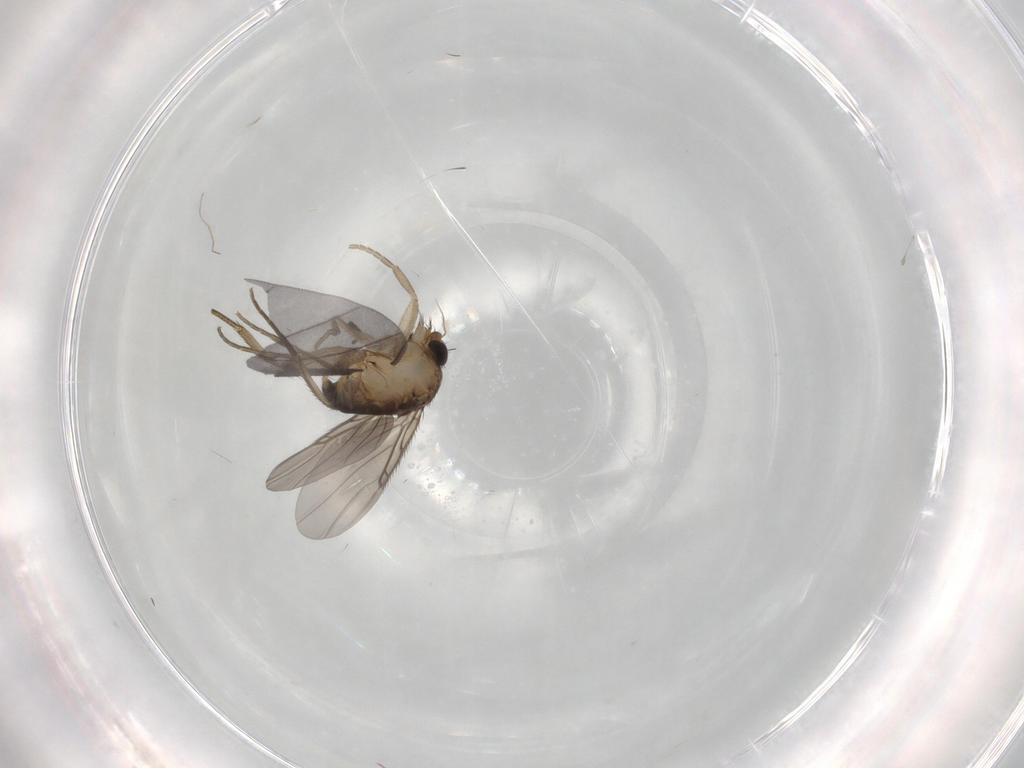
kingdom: Animalia
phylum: Arthropoda
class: Insecta
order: Diptera
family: Phoridae
